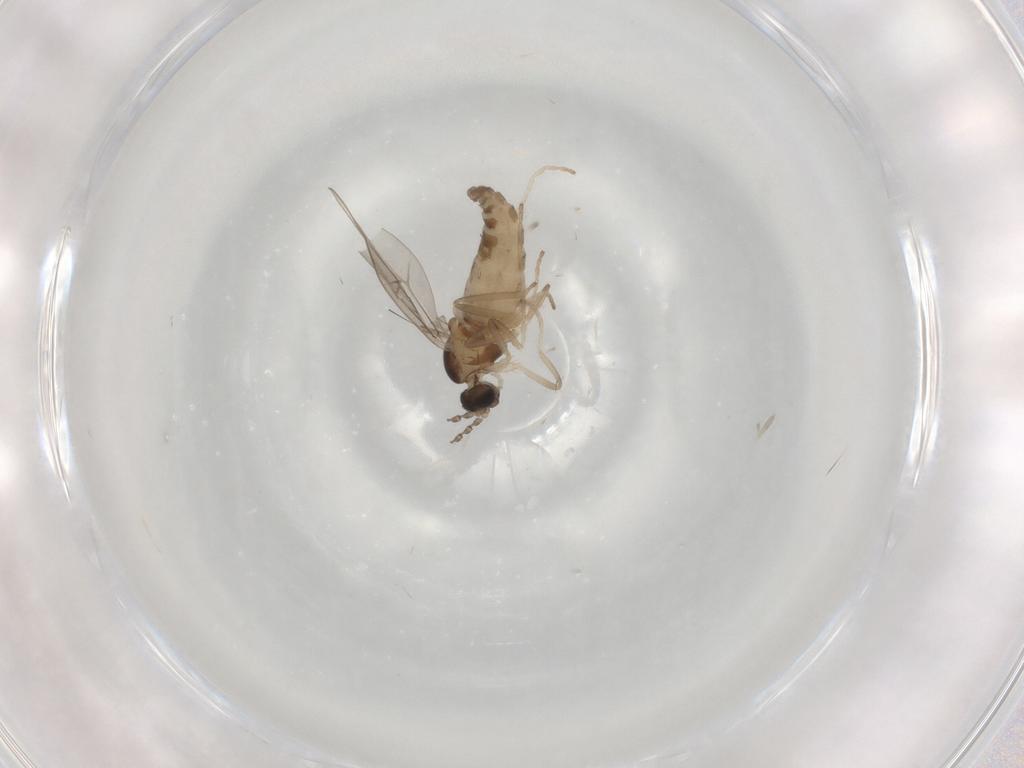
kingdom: Animalia
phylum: Arthropoda
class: Insecta
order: Diptera
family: Cecidomyiidae
